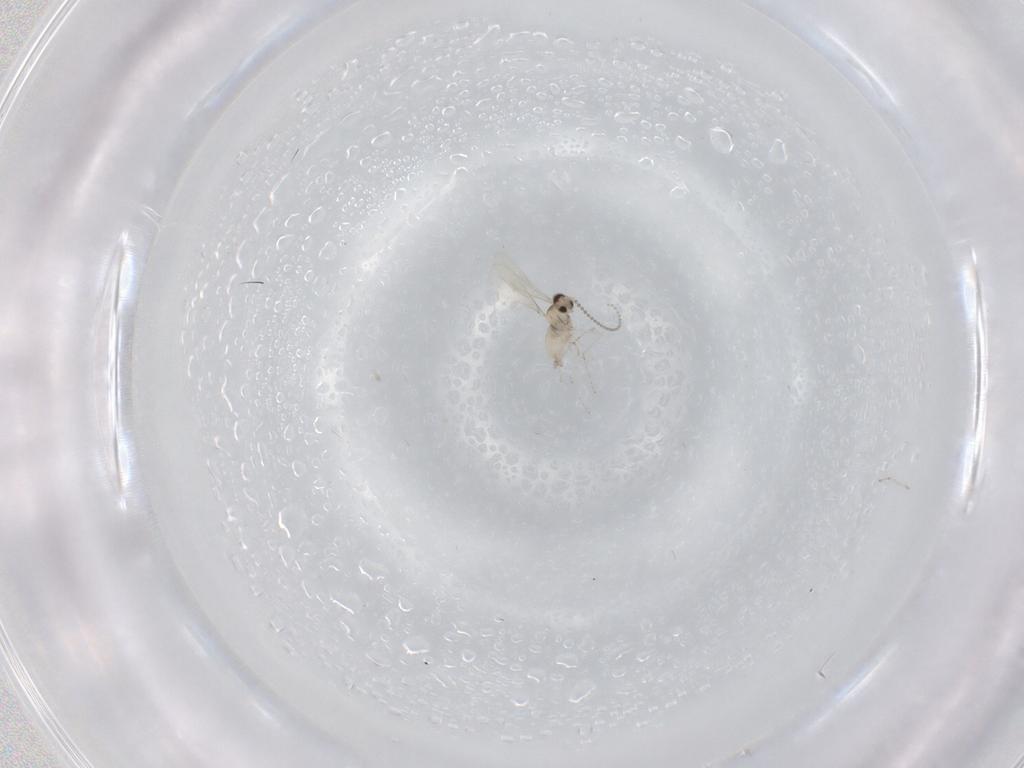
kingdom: Animalia
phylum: Arthropoda
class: Insecta
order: Diptera
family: Cecidomyiidae
